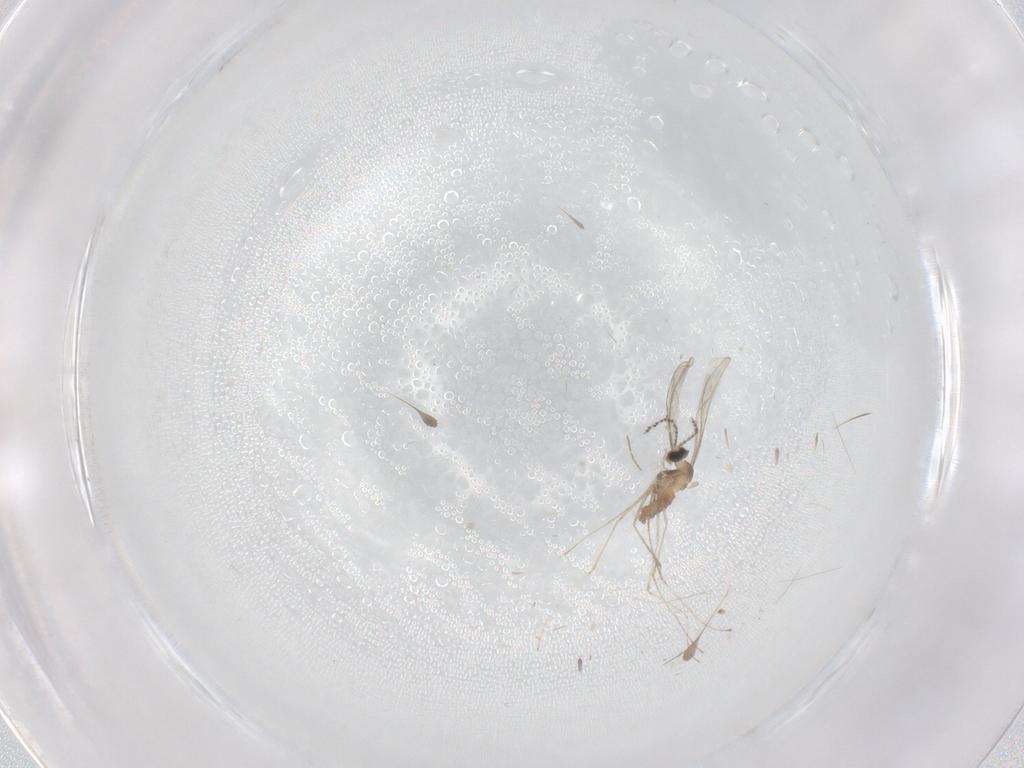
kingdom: Animalia
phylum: Arthropoda
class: Insecta
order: Diptera
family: Chironomidae
